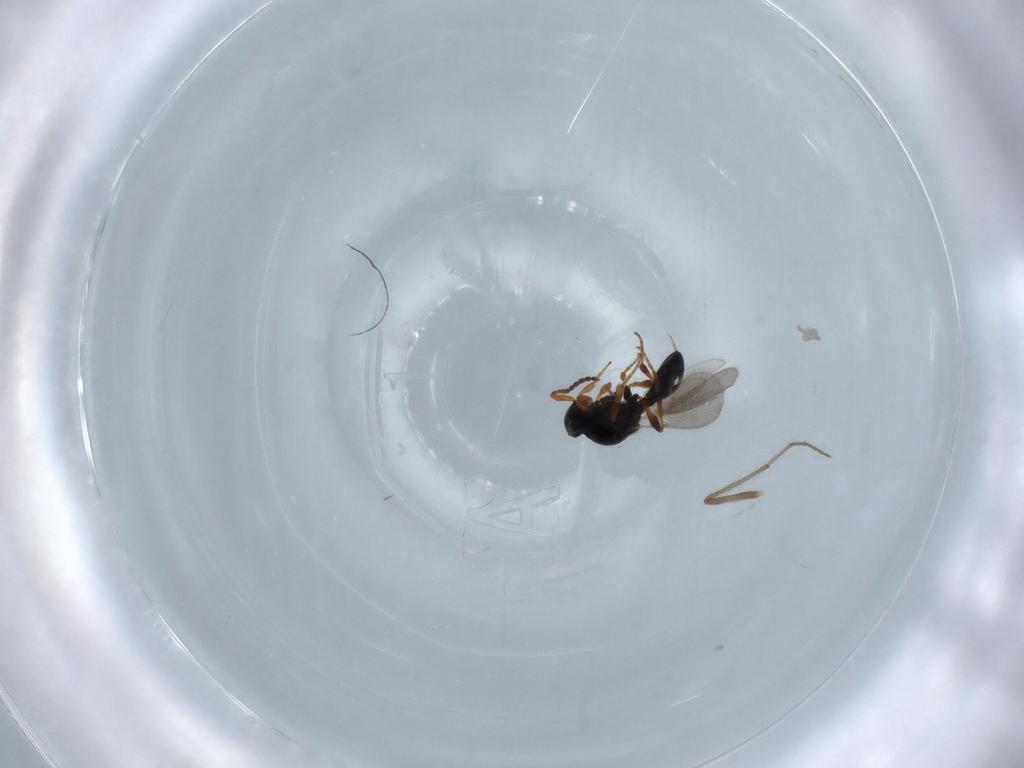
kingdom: Animalia
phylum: Arthropoda
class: Insecta
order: Hymenoptera
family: Platygastridae
